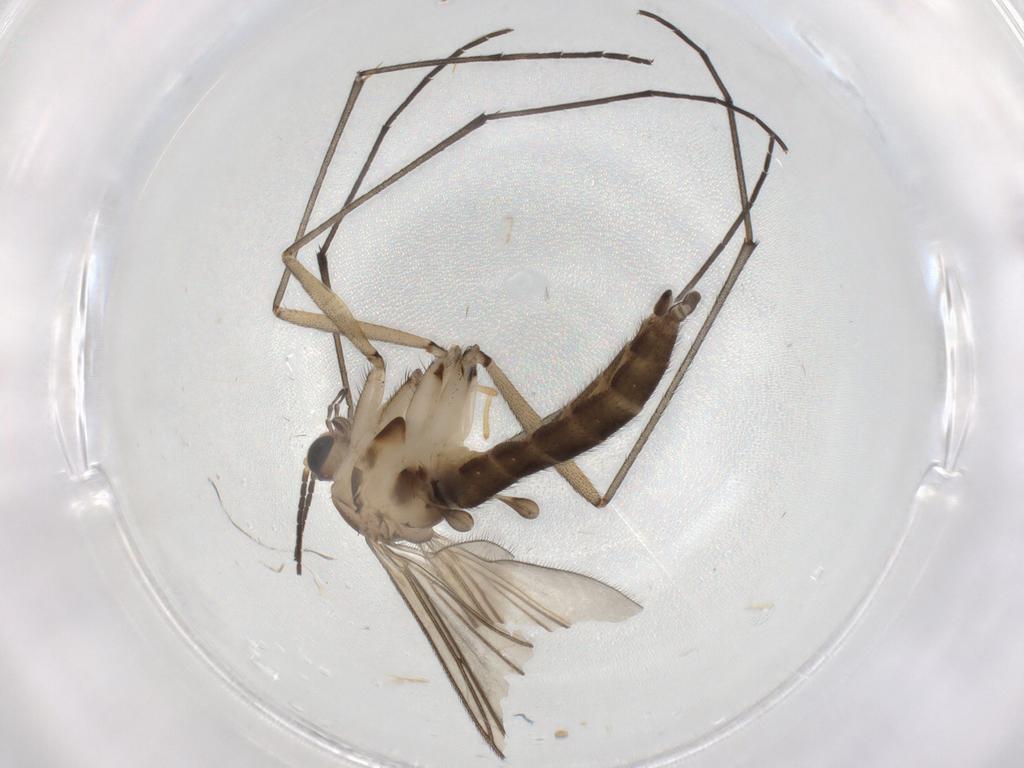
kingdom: Animalia
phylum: Arthropoda
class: Insecta
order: Diptera
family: Sciaridae
